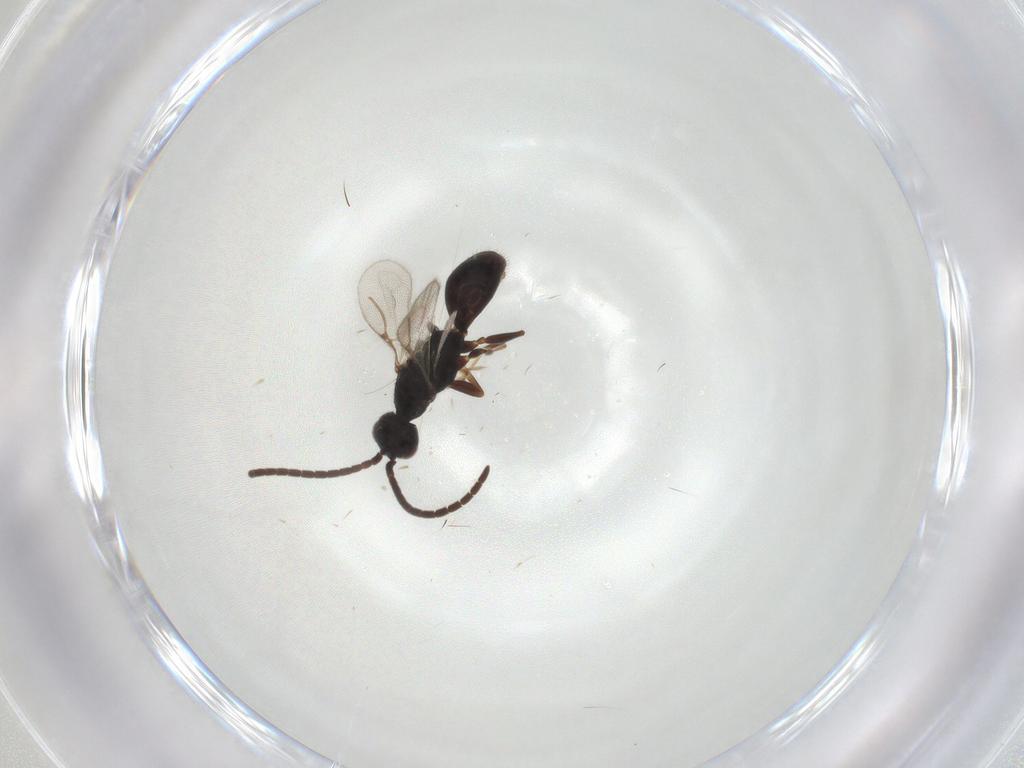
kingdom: Animalia
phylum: Arthropoda
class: Insecta
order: Hymenoptera
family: Bethylidae
